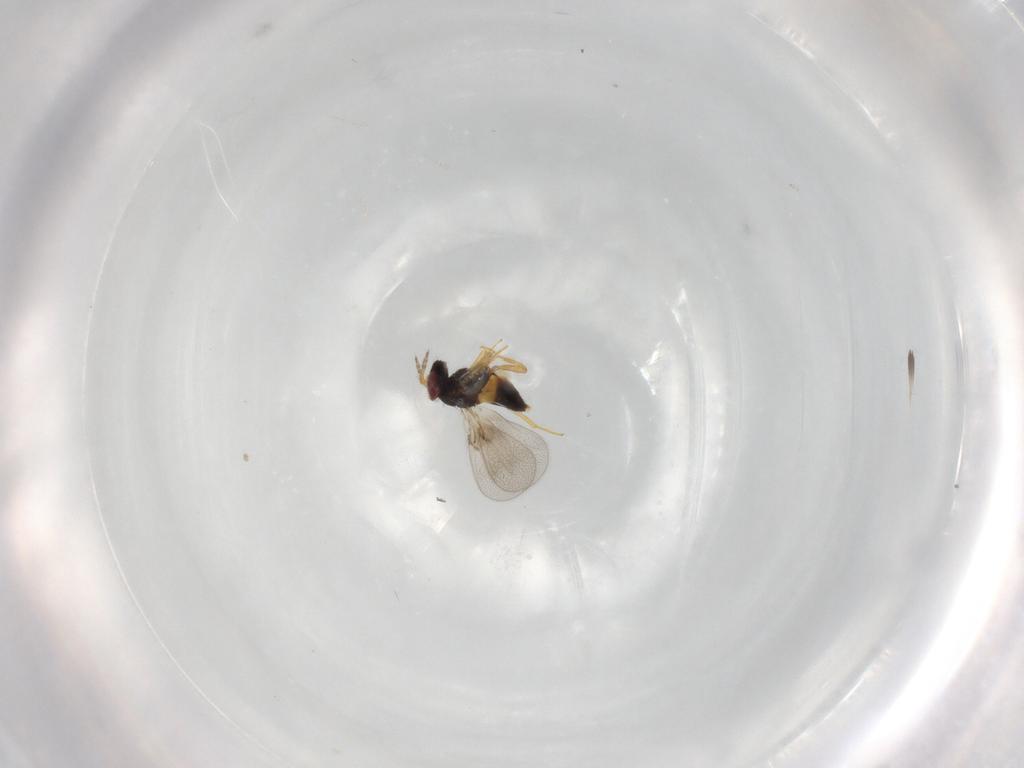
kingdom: Animalia
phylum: Arthropoda
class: Insecta
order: Hymenoptera
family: Trichogrammatidae
